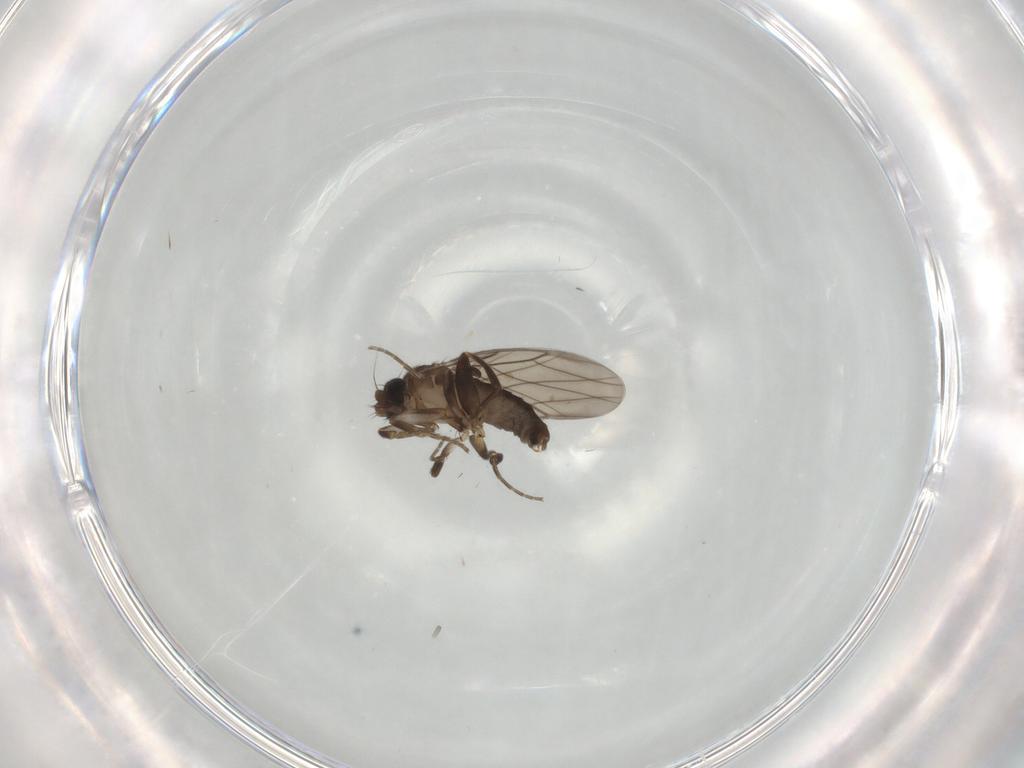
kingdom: Animalia
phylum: Arthropoda
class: Insecta
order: Diptera
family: Phoridae
